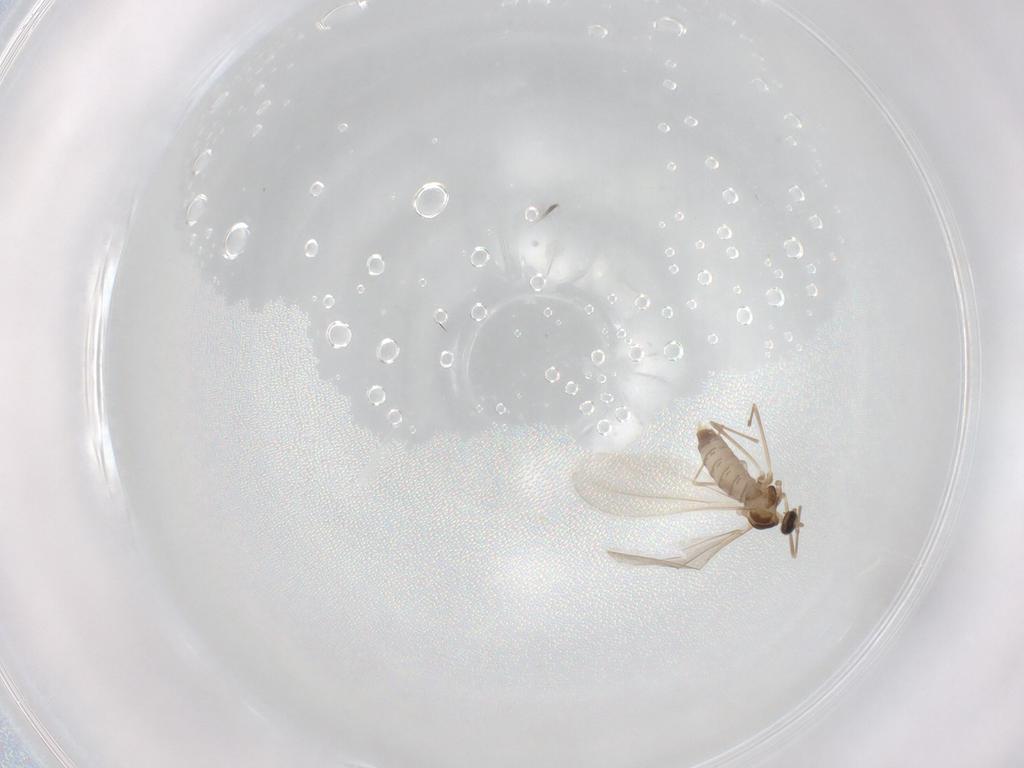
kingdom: Animalia
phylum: Arthropoda
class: Insecta
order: Diptera
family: Cecidomyiidae
